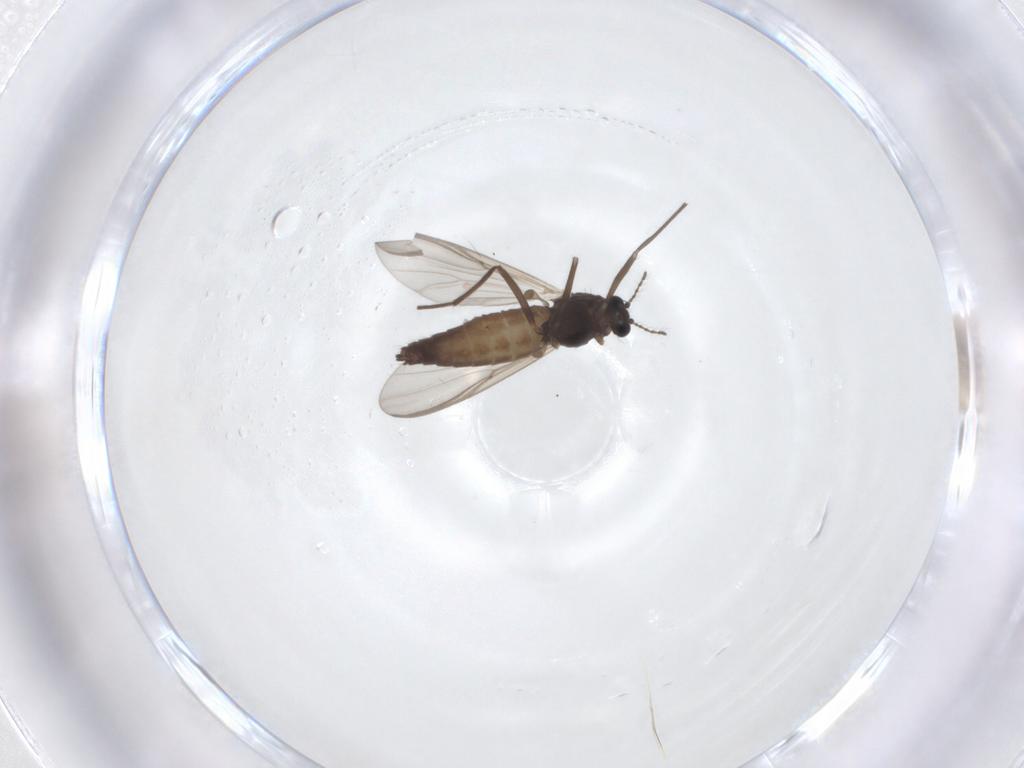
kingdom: Animalia
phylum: Arthropoda
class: Insecta
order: Diptera
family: Chironomidae
